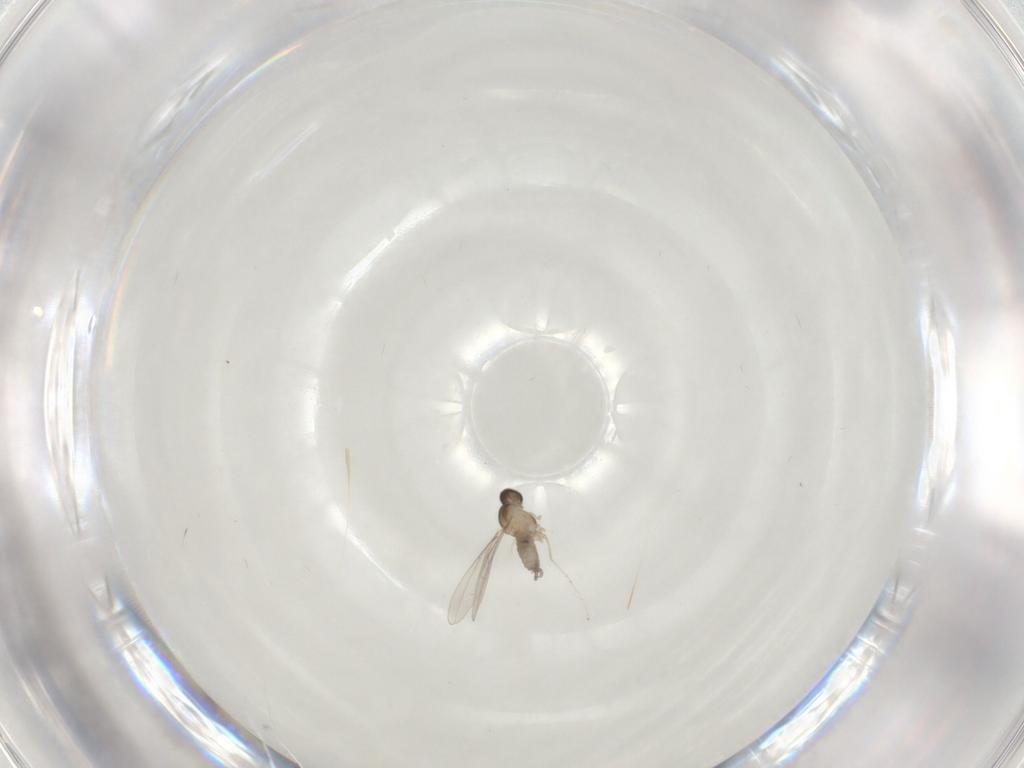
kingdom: Animalia
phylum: Arthropoda
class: Insecta
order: Diptera
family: Cecidomyiidae
